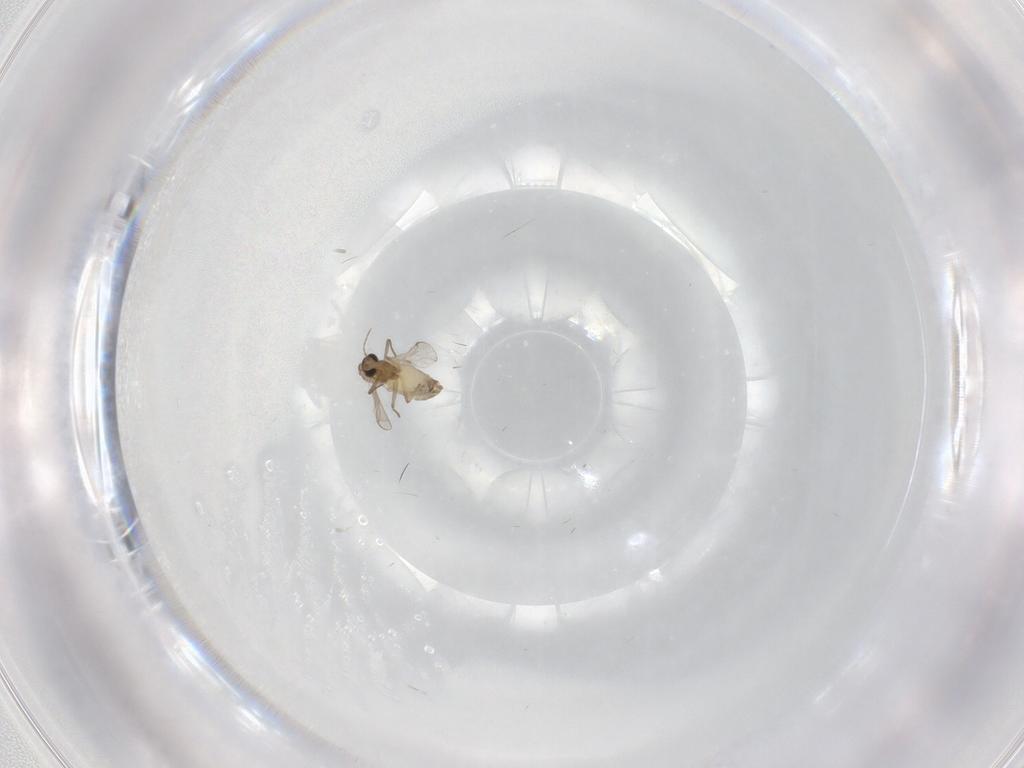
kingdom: Animalia
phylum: Arthropoda
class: Insecta
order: Diptera
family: Chironomidae
